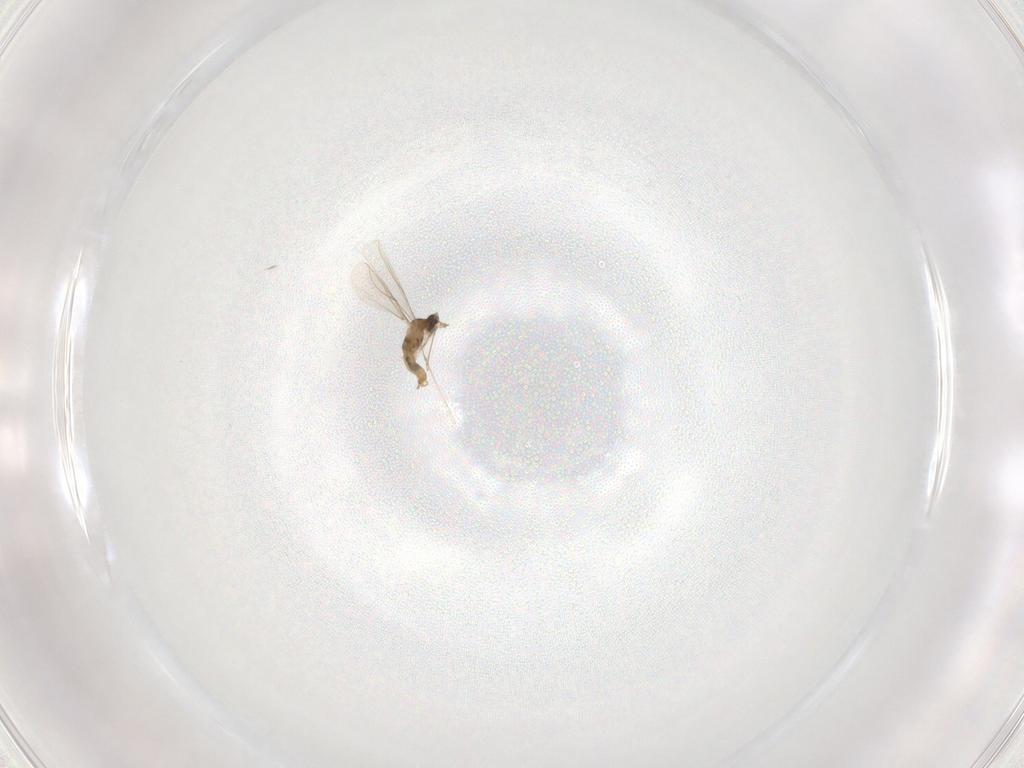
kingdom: Animalia
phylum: Arthropoda
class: Insecta
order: Diptera
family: Cecidomyiidae
